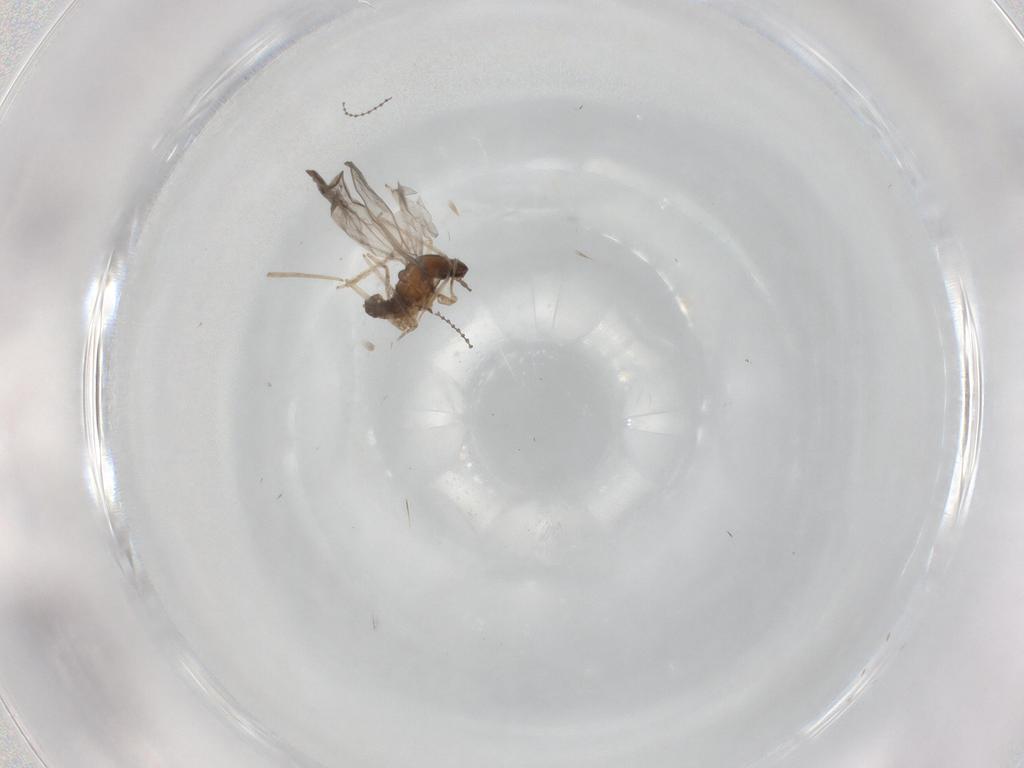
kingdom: Animalia
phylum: Arthropoda
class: Insecta
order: Diptera
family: Cecidomyiidae
